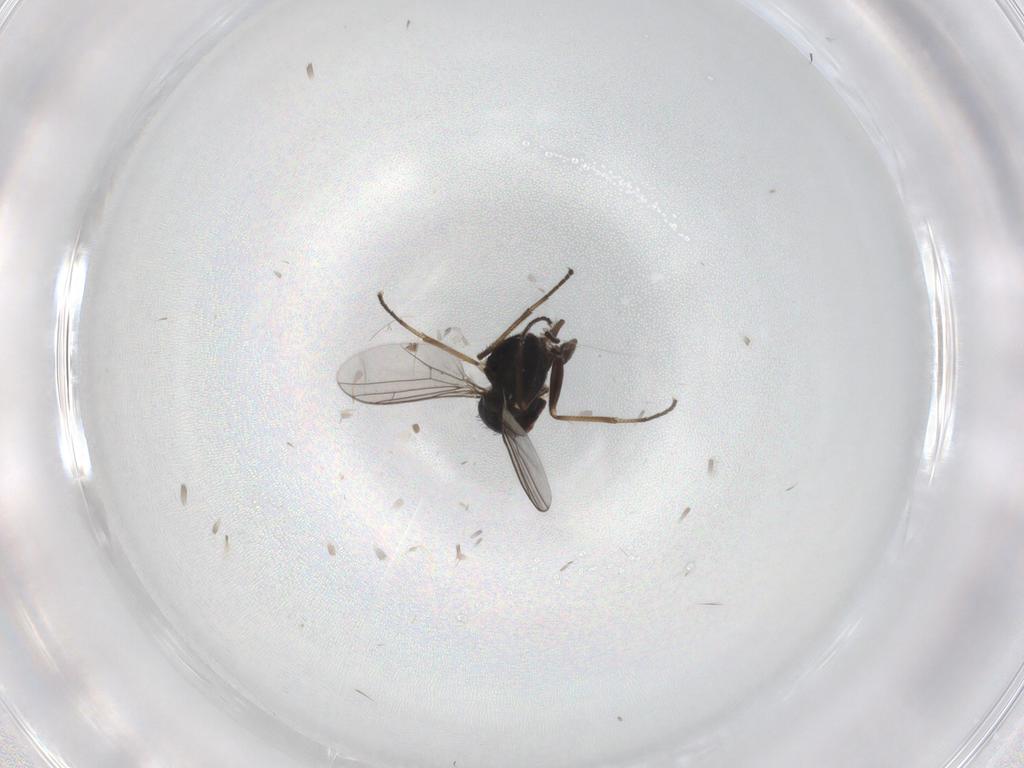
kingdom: Animalia
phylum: Arthropoda
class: Insecta
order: Diptera
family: Dolichopodidae
